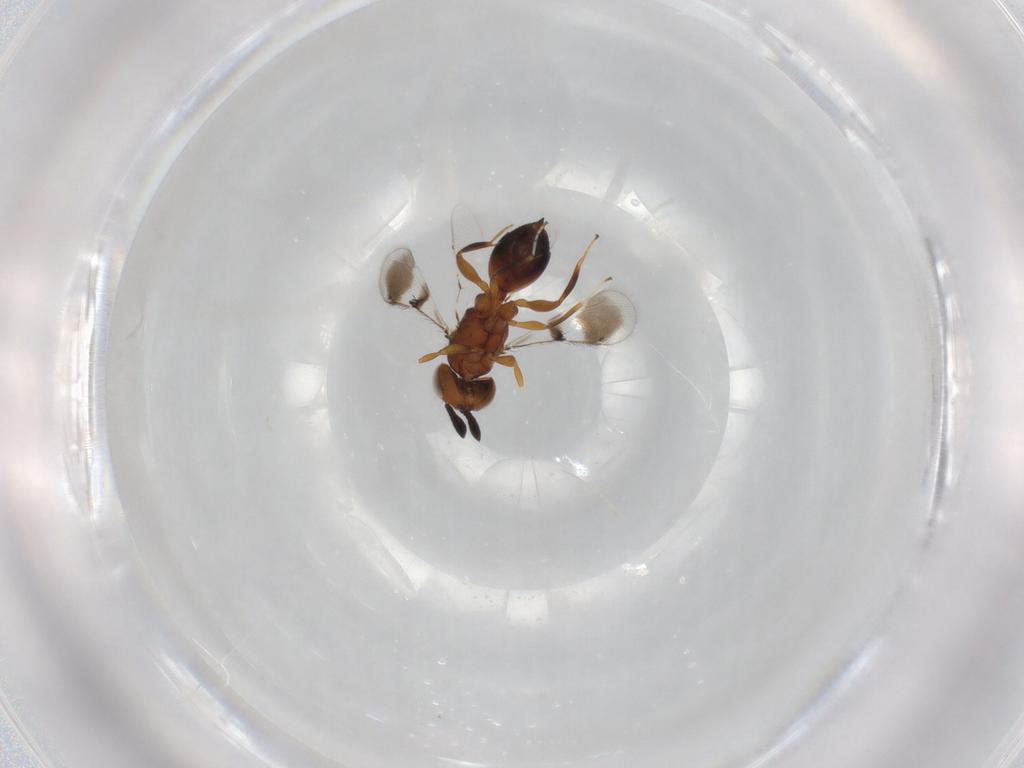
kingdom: Animalia
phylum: Arthropoda
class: Insecta
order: Hymenoptera
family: Moranilidae
